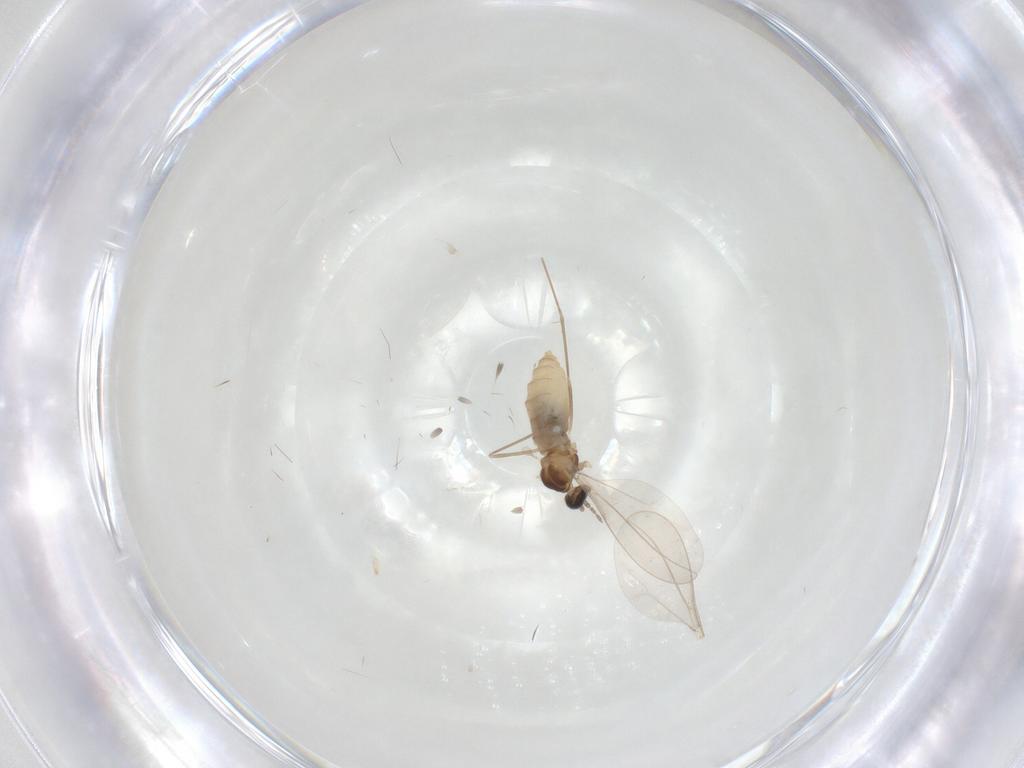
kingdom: Animalia
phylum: Arthropoda
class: Insecta
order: Diptera
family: Cecidomyiidae
